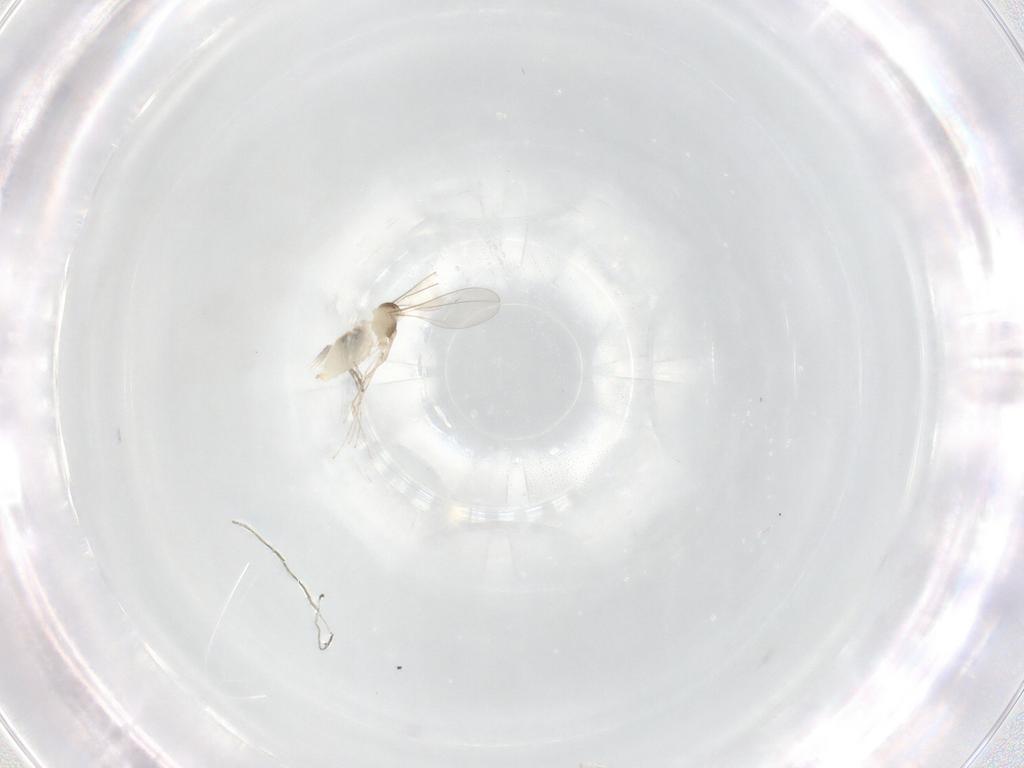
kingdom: Animalia
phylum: Arthropoda
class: Insecta
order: Diptera
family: Cecidomyiidae
